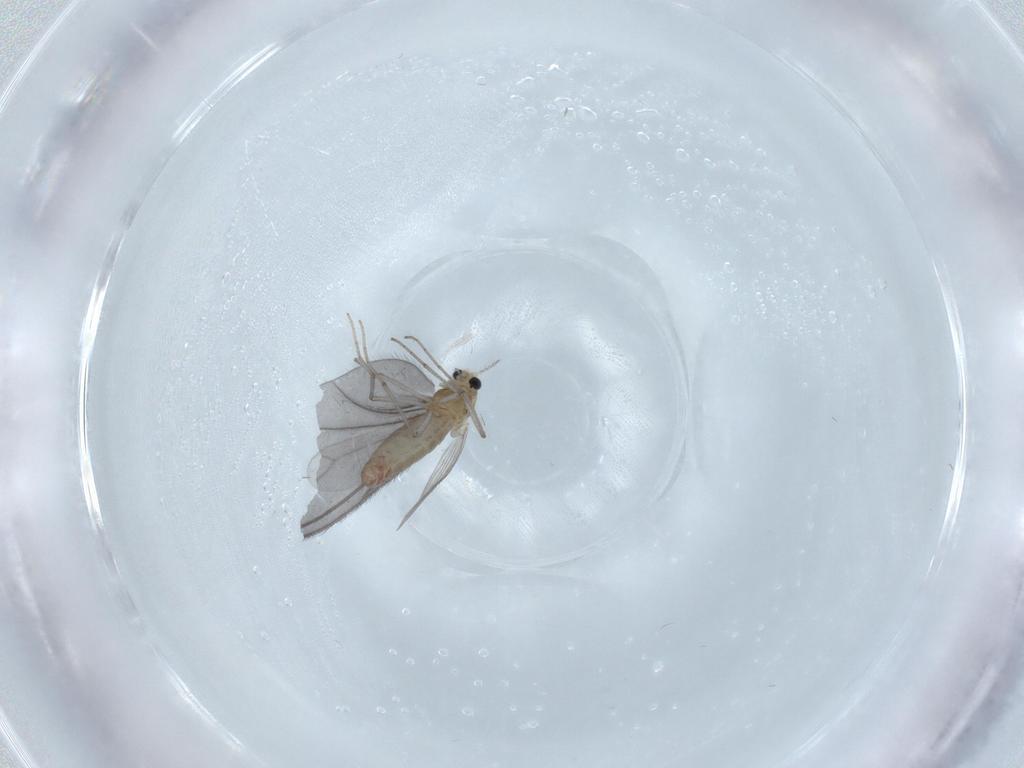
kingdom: Animalia
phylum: Arthropoda
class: Insecta
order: Diptera
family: Chironomidae
